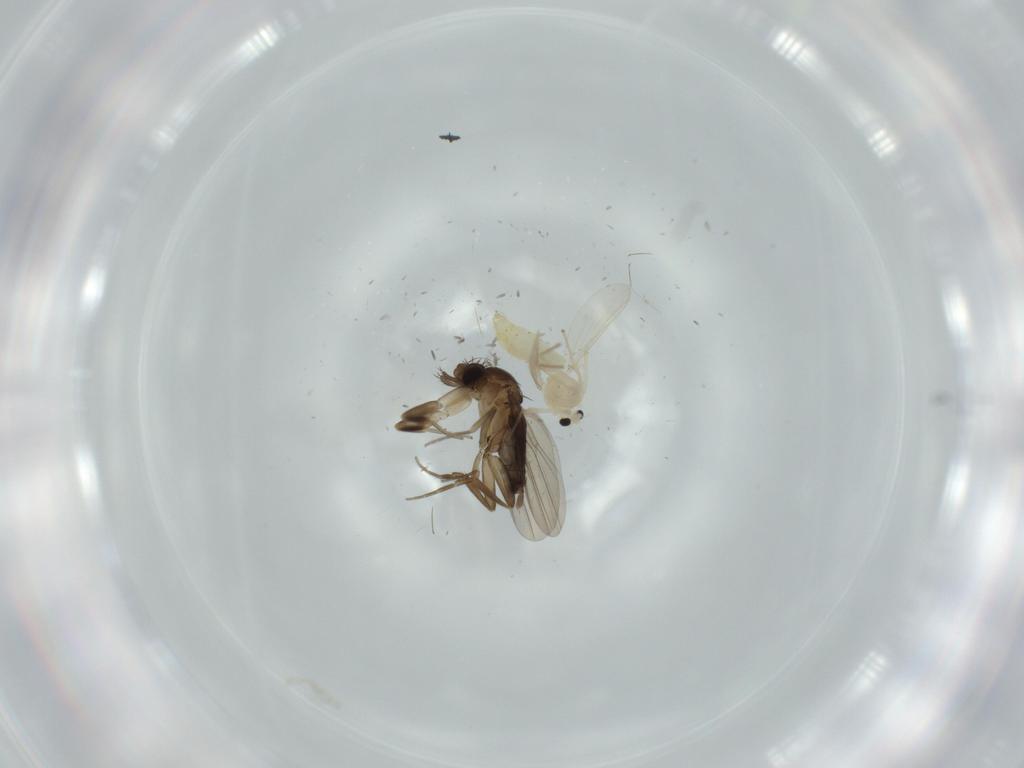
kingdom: Animalia
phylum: Arthropoda
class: Insecta
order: Diptera
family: Chironomidae
